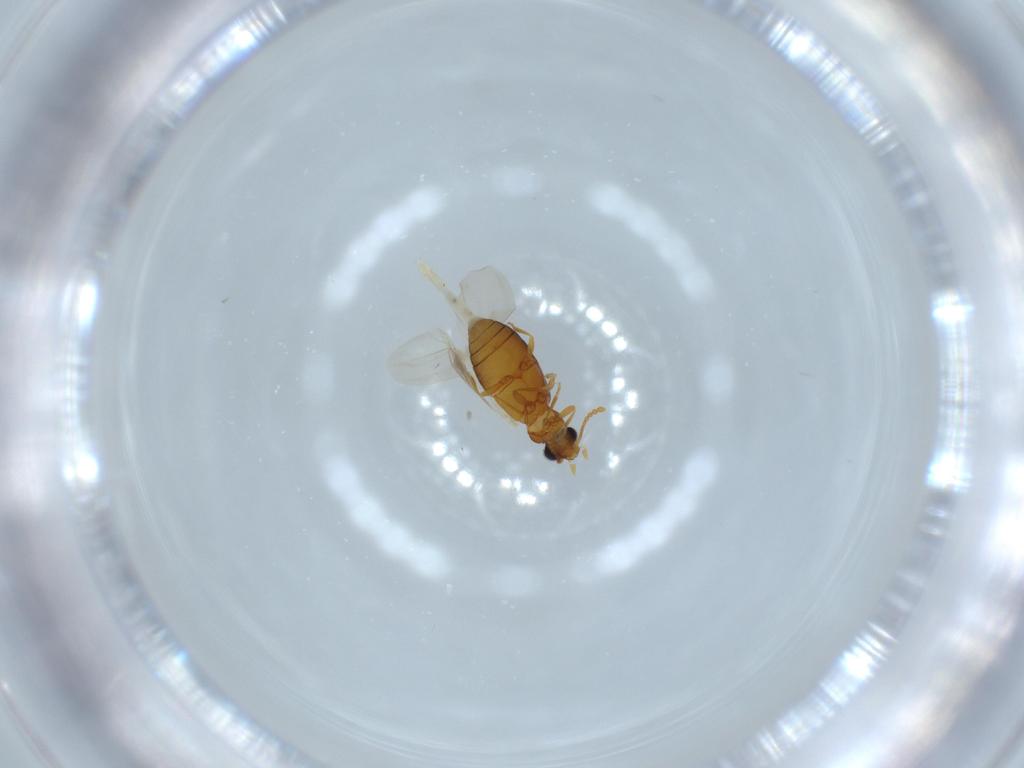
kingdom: Animalia
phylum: Arthropoda
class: Insecta
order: Coleoptera
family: Aderidae
